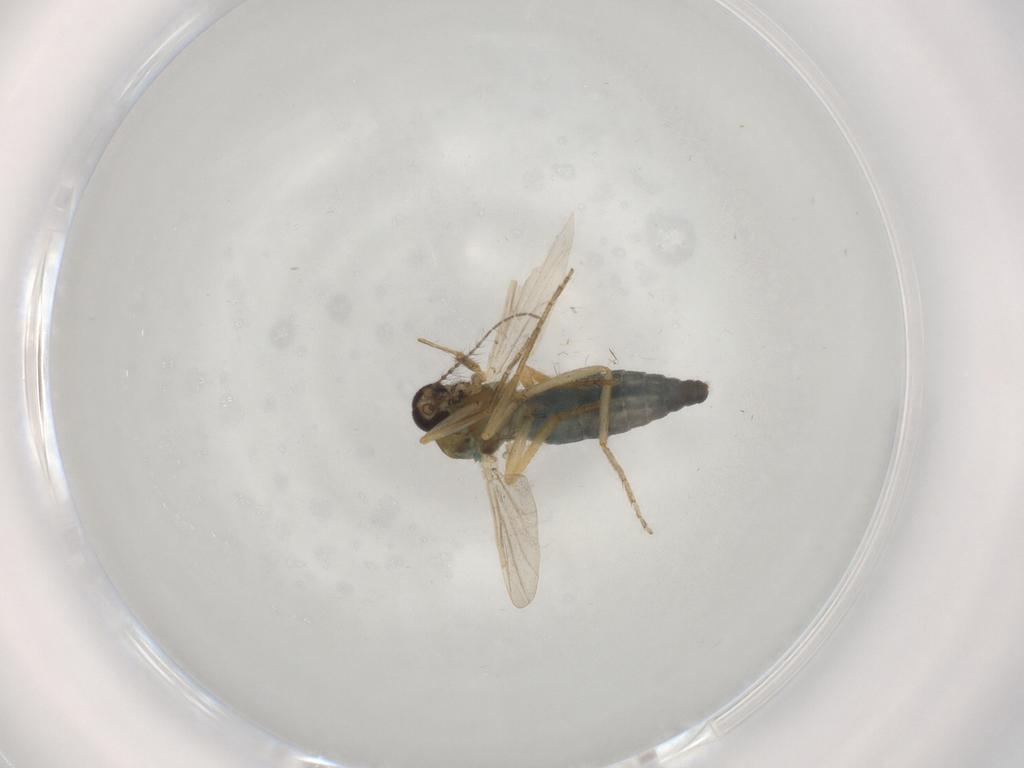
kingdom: Animalia
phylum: Arthropoda
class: Insecta
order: Diptera
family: Ceratopogonidae
